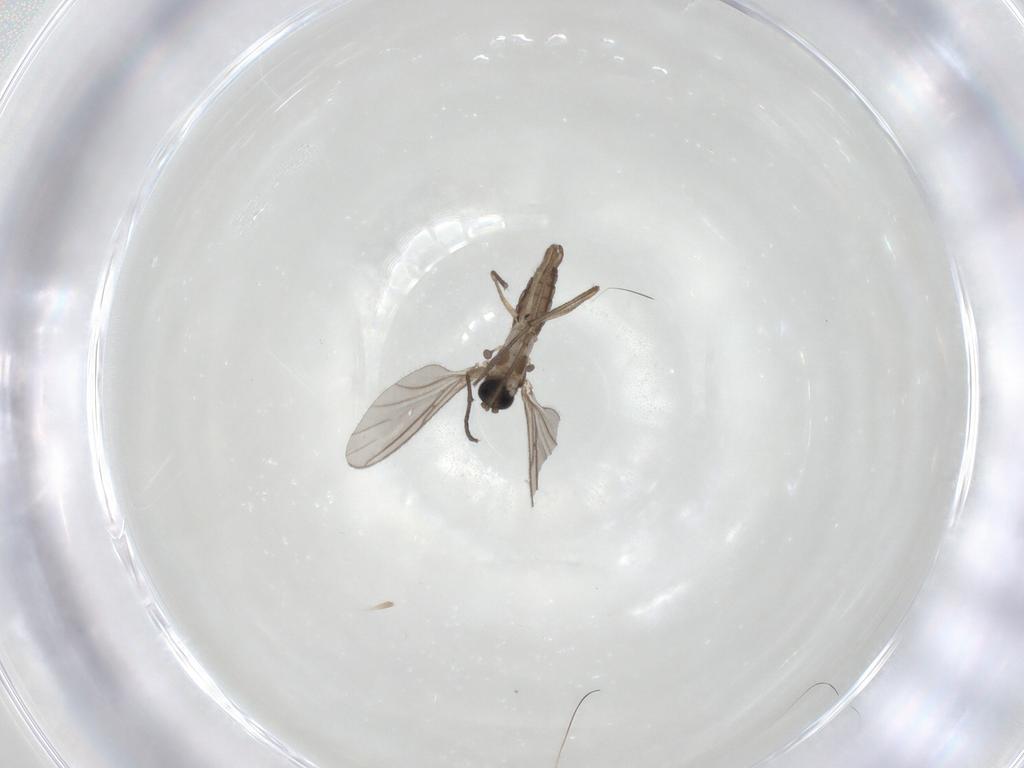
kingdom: Animalia
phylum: Arthropoda
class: Insecta
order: Diptera
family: Sciaridae
